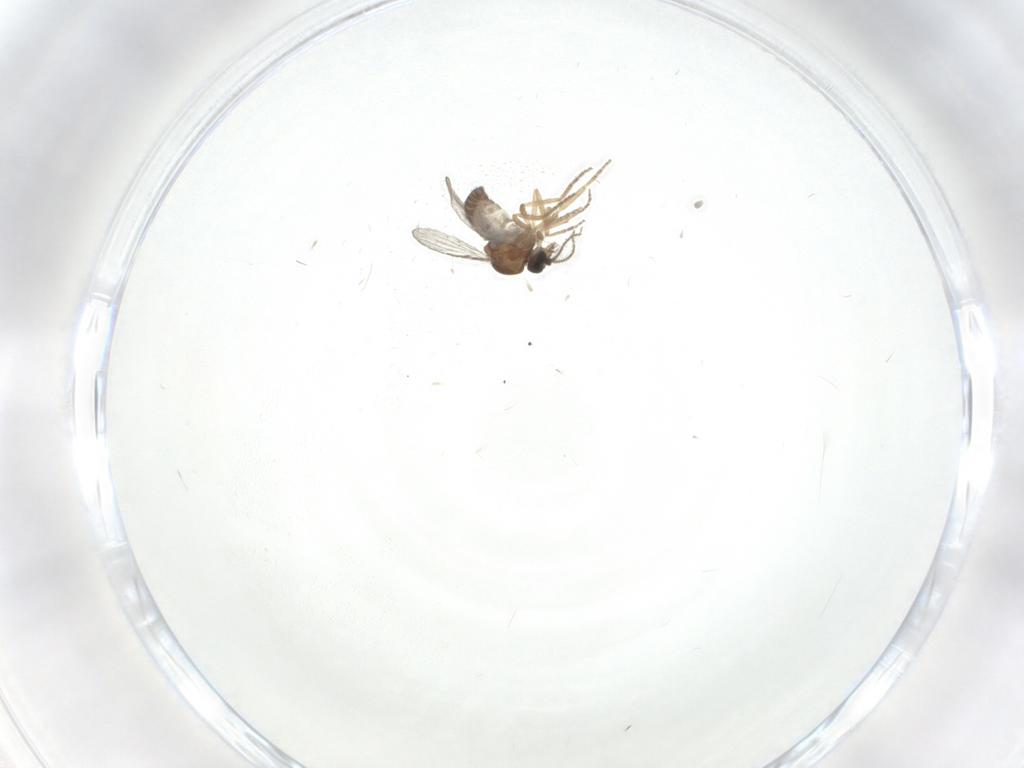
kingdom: Animalia
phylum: Arthropoda
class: Insecta
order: Diptera
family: Ceratopogonidae
